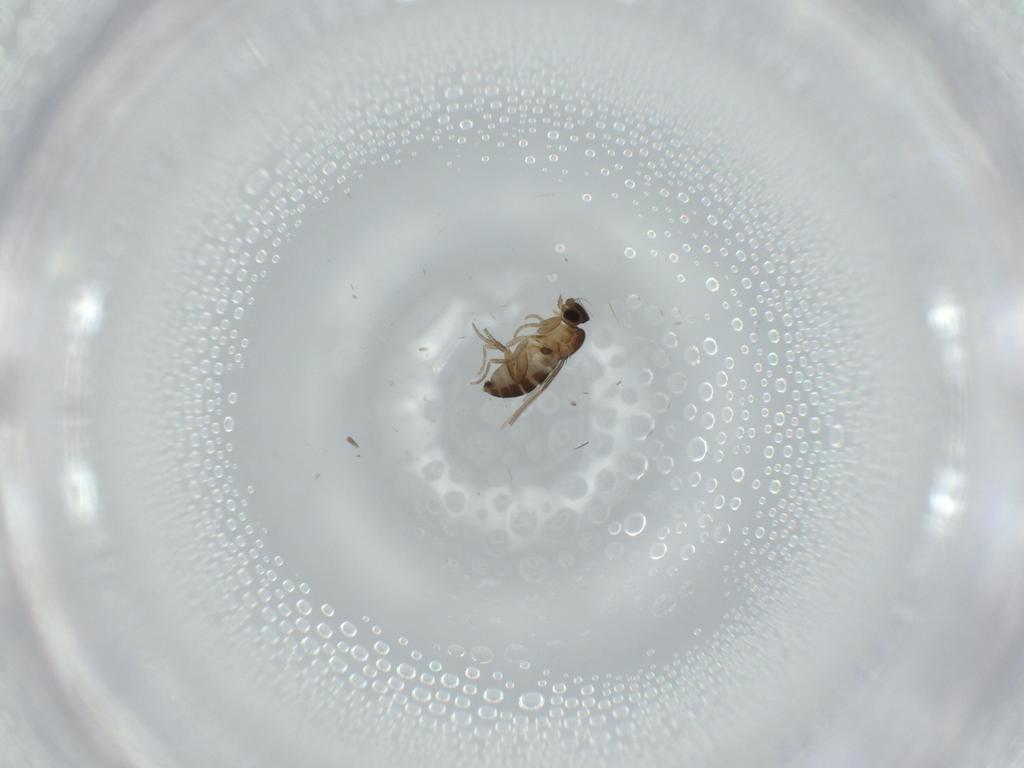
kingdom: Animalia
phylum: Arthropoda
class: Insecta
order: Diptera
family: Phoridae
